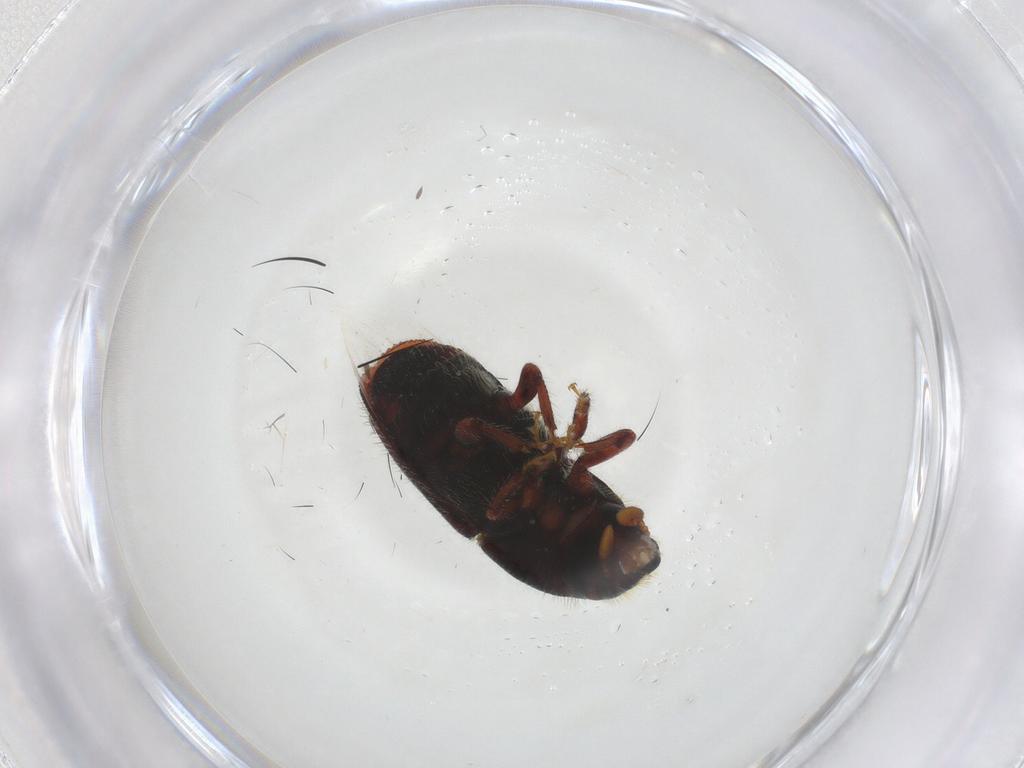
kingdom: Animalia
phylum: Arthropoda
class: Insecta
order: Coleoptera
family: Curculionidae
